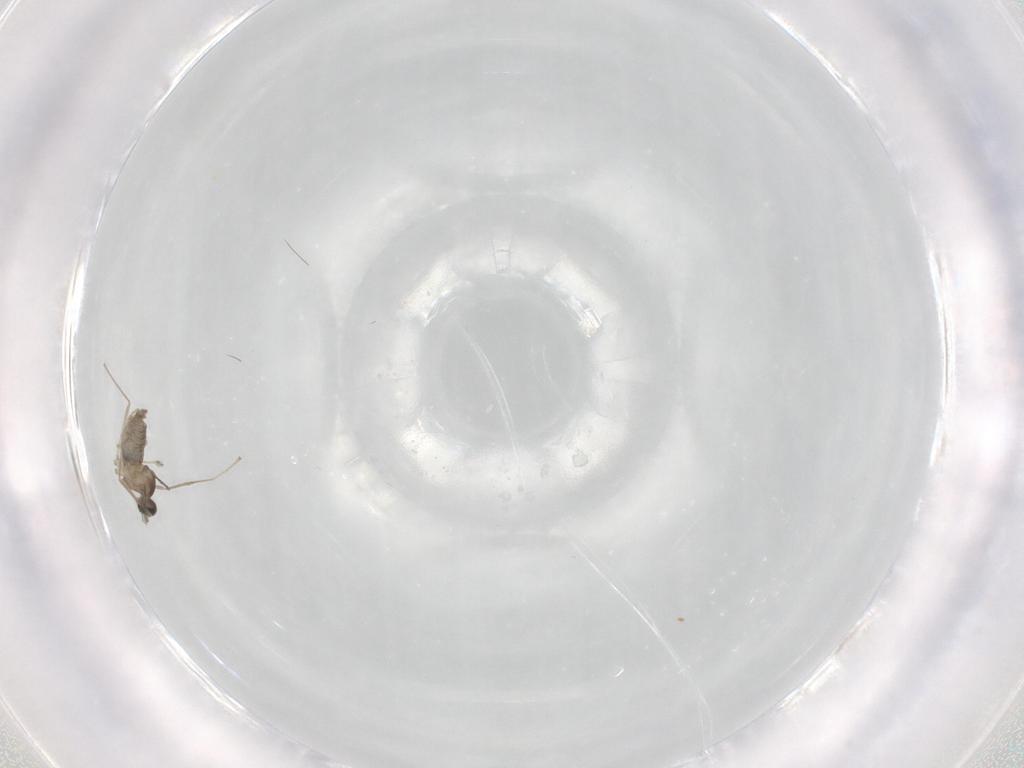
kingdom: Animalia
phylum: Arthropoda
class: Insecta
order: Diptera
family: Cecidomyiidae
